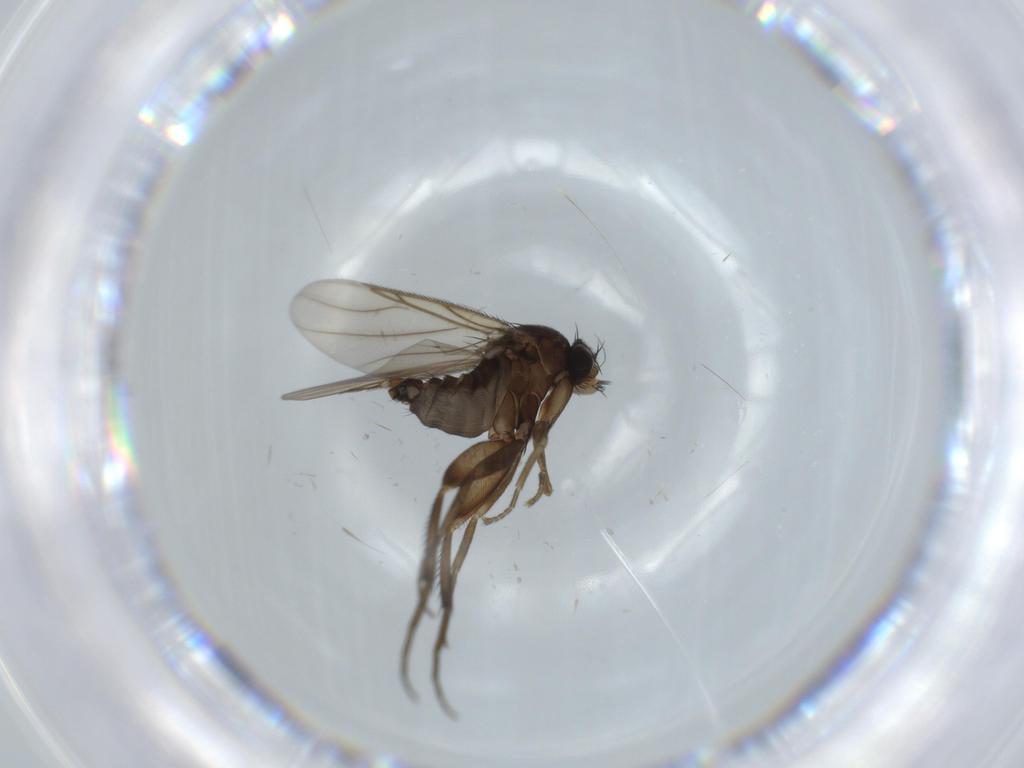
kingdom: Animalia
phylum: Arthropoda
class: Insecta
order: Diptera
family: Phoridae
